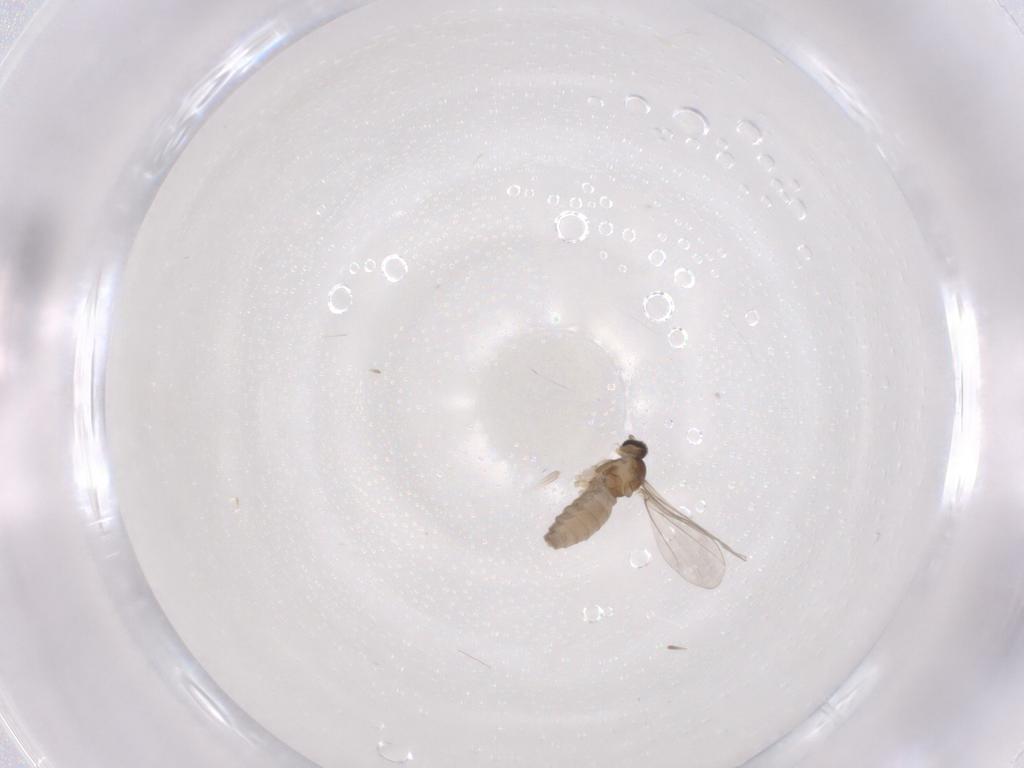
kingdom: Animalia
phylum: Arthropoda
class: Insecta
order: Diptera
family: Cecidomyiidae
